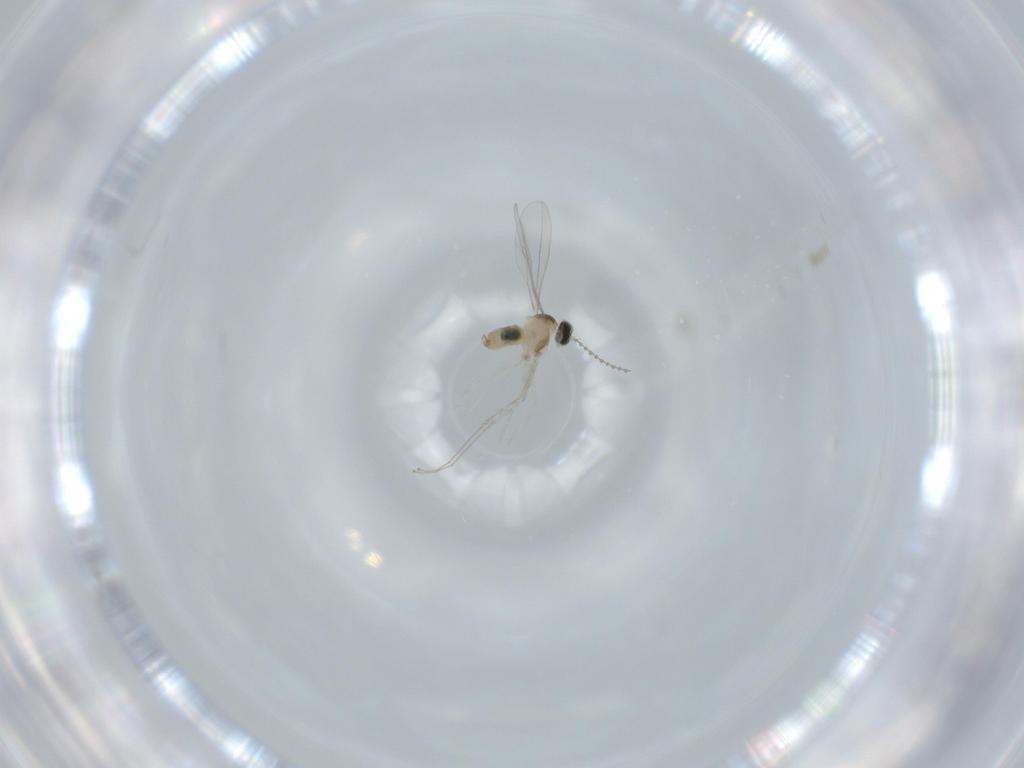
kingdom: Animalia
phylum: Arthropoda
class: Insecta
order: Diptera
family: Cecidomyiidae
